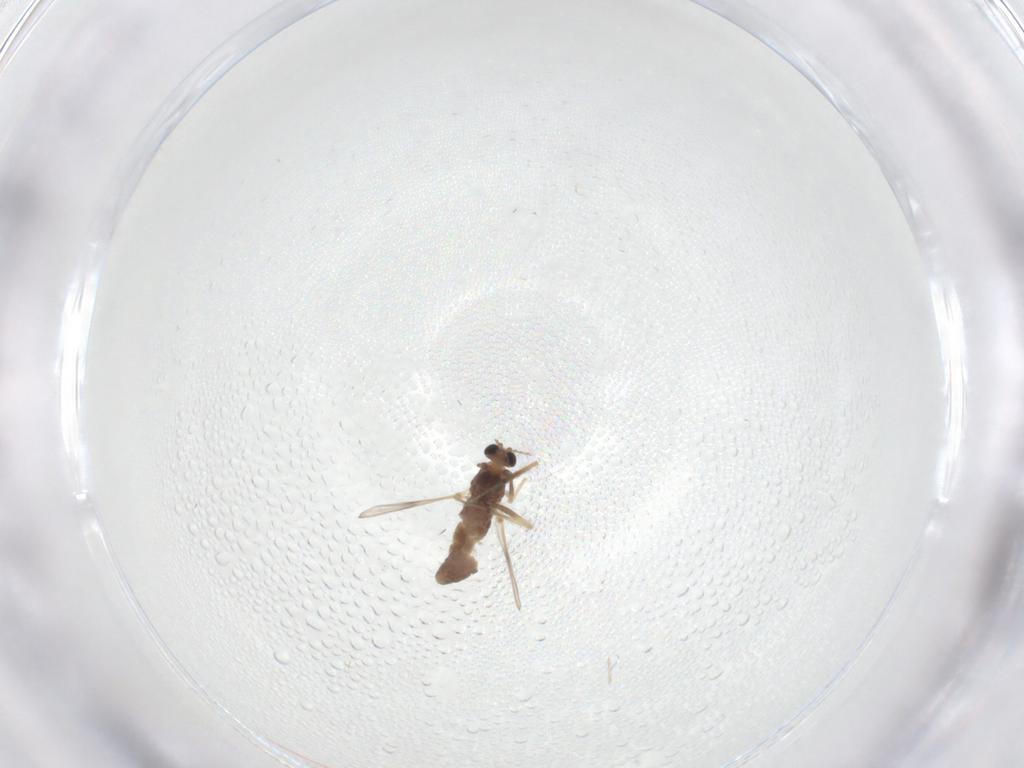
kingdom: Animalia
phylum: Arthropoda
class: Insecta
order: Diptera
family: Chironomidae
